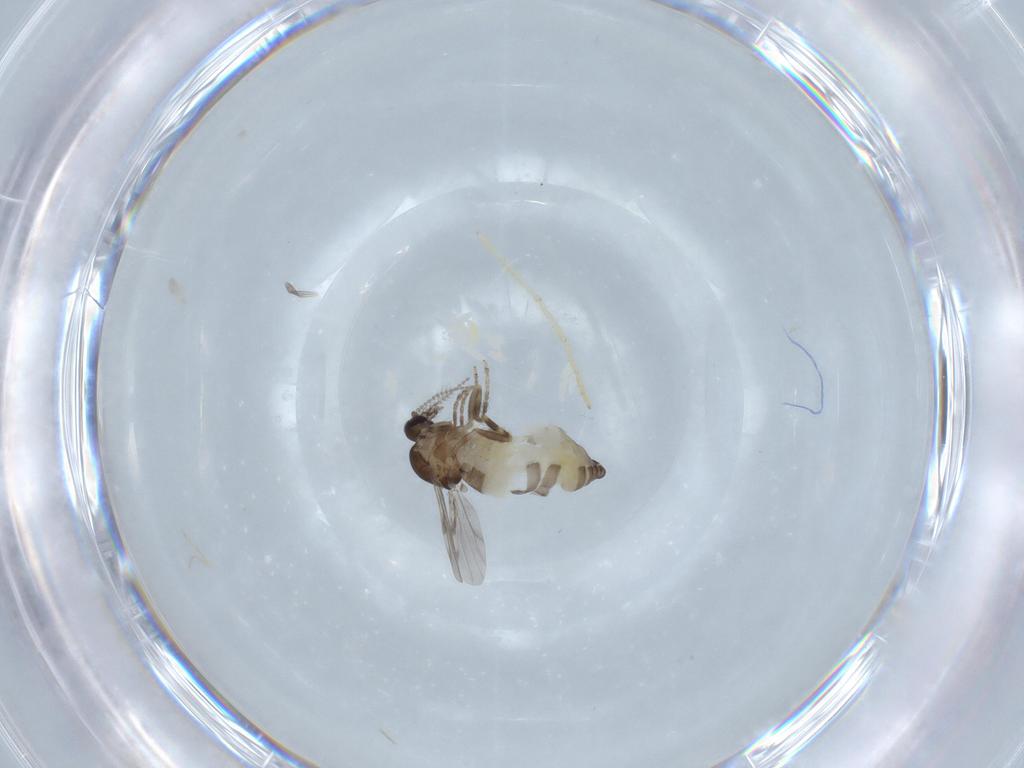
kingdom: Animalia
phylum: Arthropoda
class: Insecta
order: Diptera
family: Ceratopogonidae
